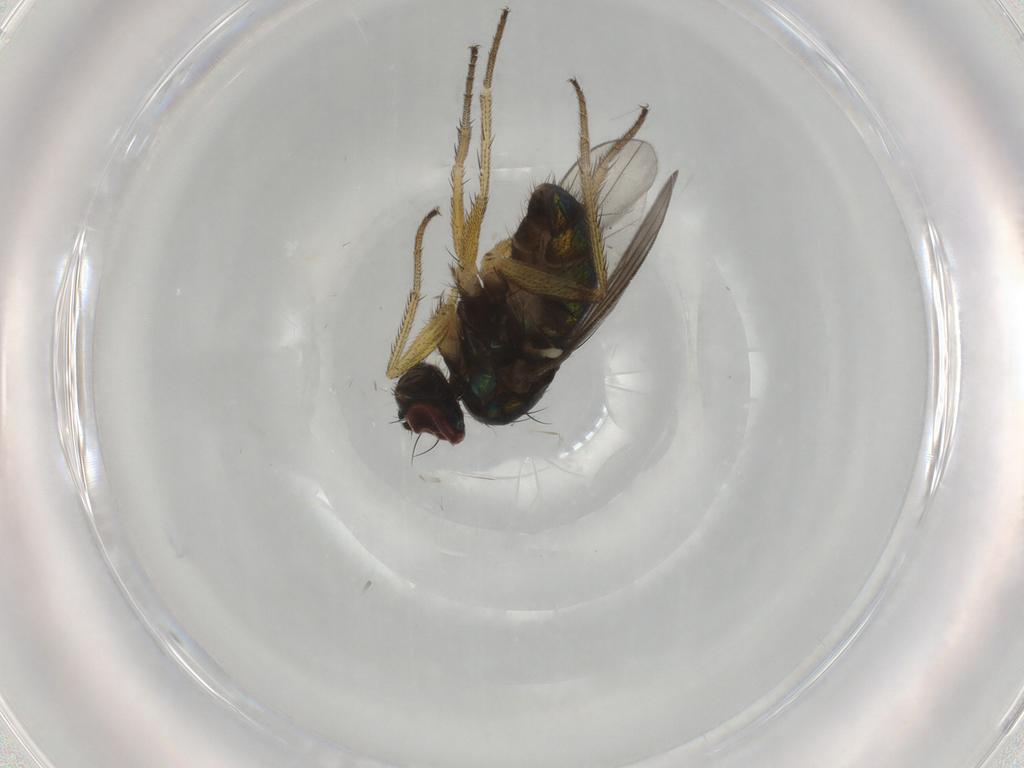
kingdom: Animalia
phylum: Arthropoda
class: Insecta
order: Diptera
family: Dolichopodidae
